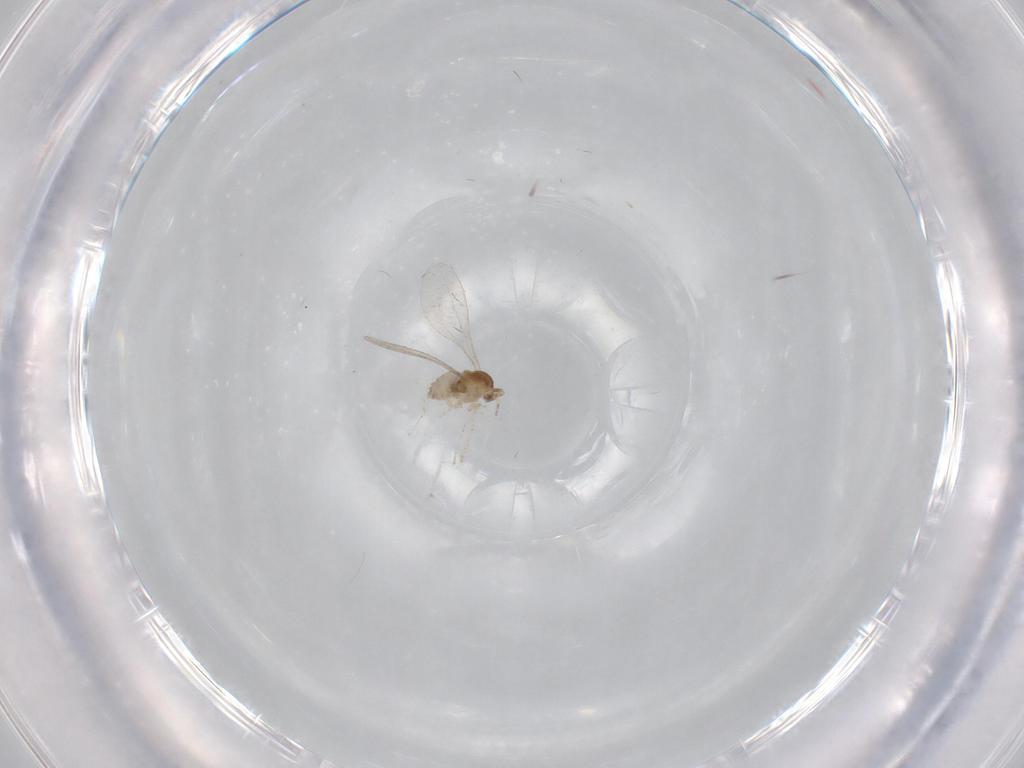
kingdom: Animalia
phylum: Arthropoda
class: Insecta
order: Diptera
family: Cecidomyiidae
